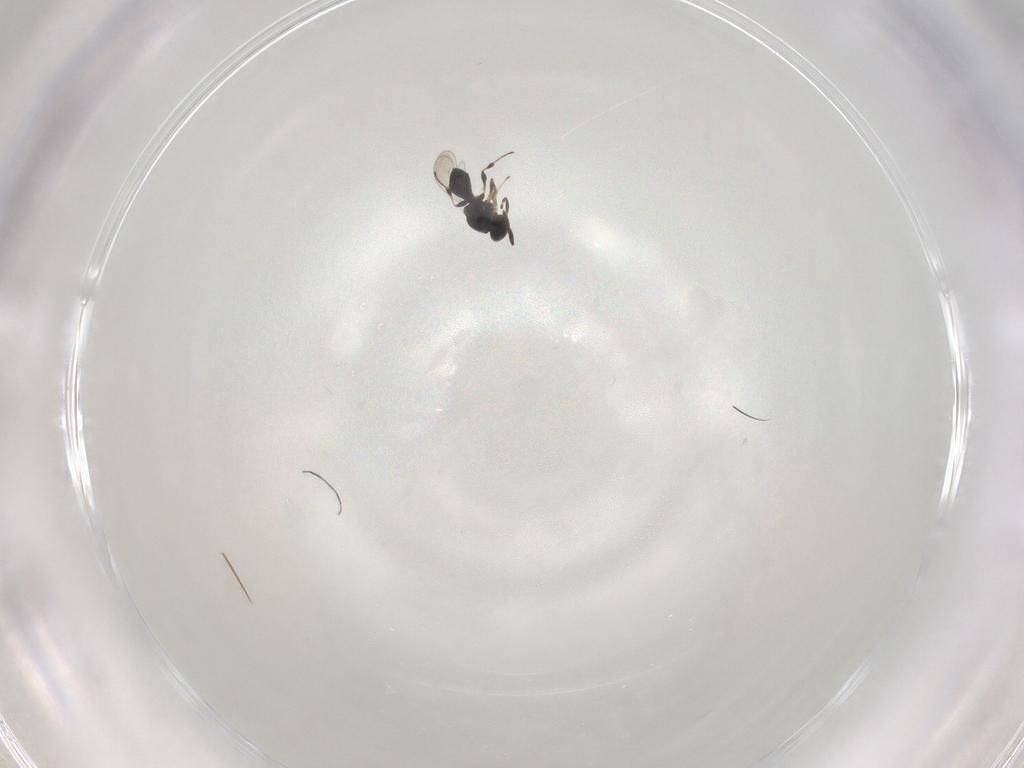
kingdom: Animalia
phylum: Arthropoda
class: Insecta
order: Hymenoptera
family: Platygastridae
